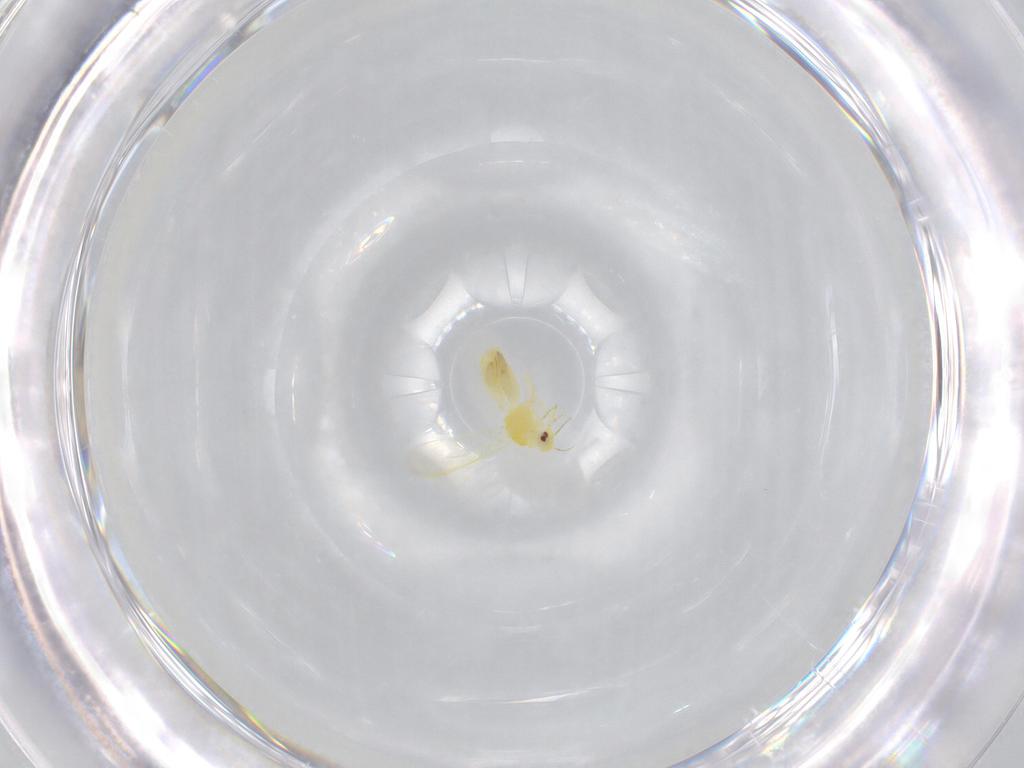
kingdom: Animalia
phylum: Arthropoda
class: Insecta
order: Hemiptera
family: Aleyrodidae
